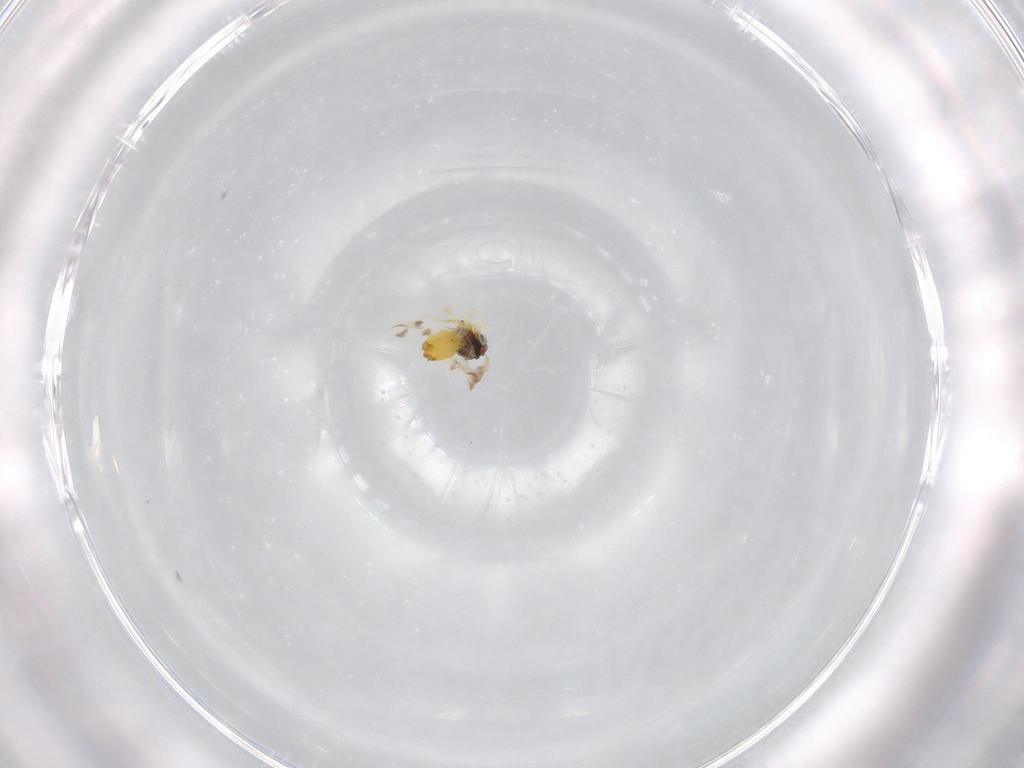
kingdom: Animalia
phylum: Arthropoda
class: Insecta
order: Hemiptera
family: Aleyrodidae
